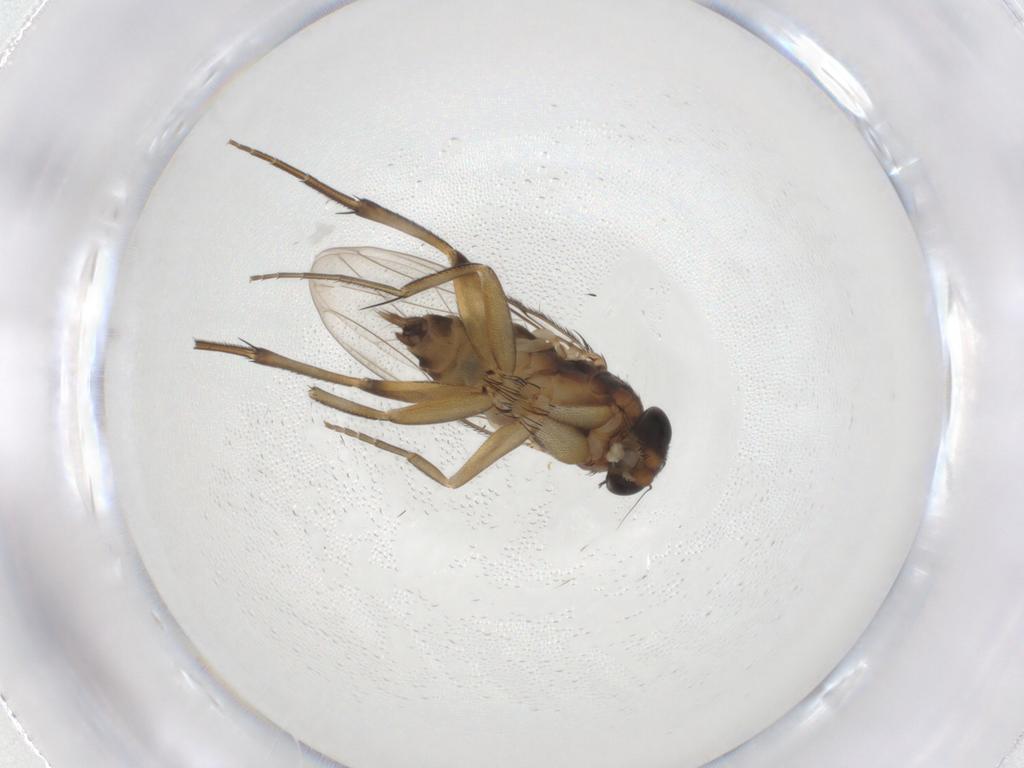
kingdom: Animalia
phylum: Arthropoda
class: Insecta
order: Diptera
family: Phoridae
